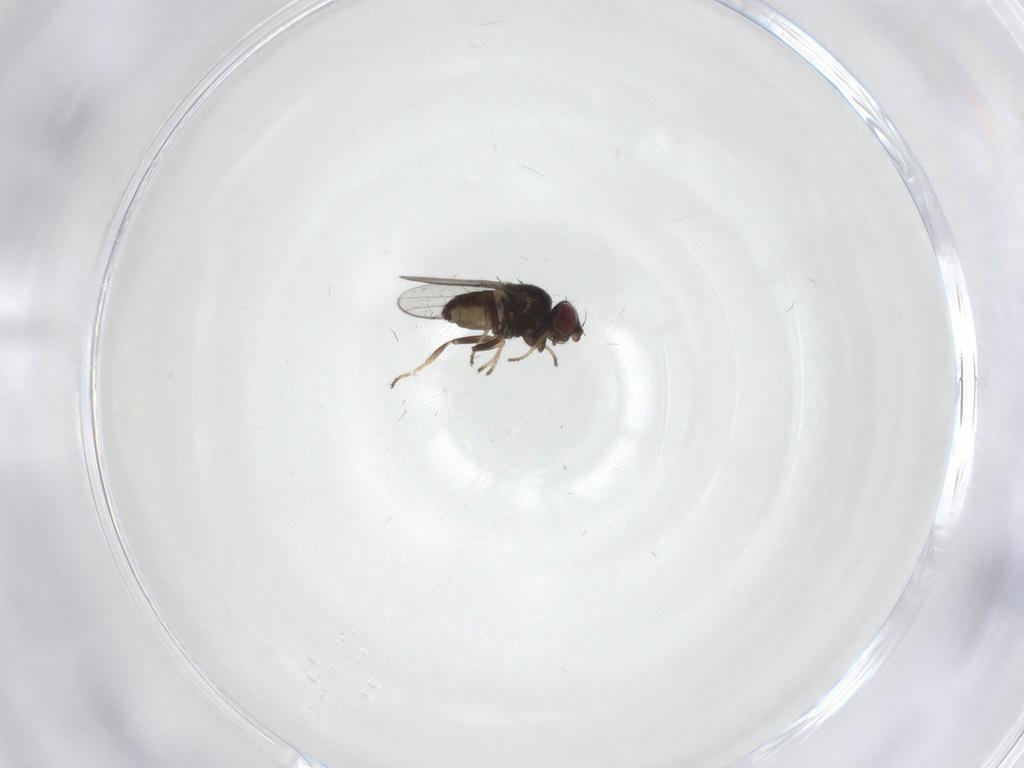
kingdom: Animalia
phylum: Arthropoda
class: Insecta
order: Diptera
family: Chloropidae
